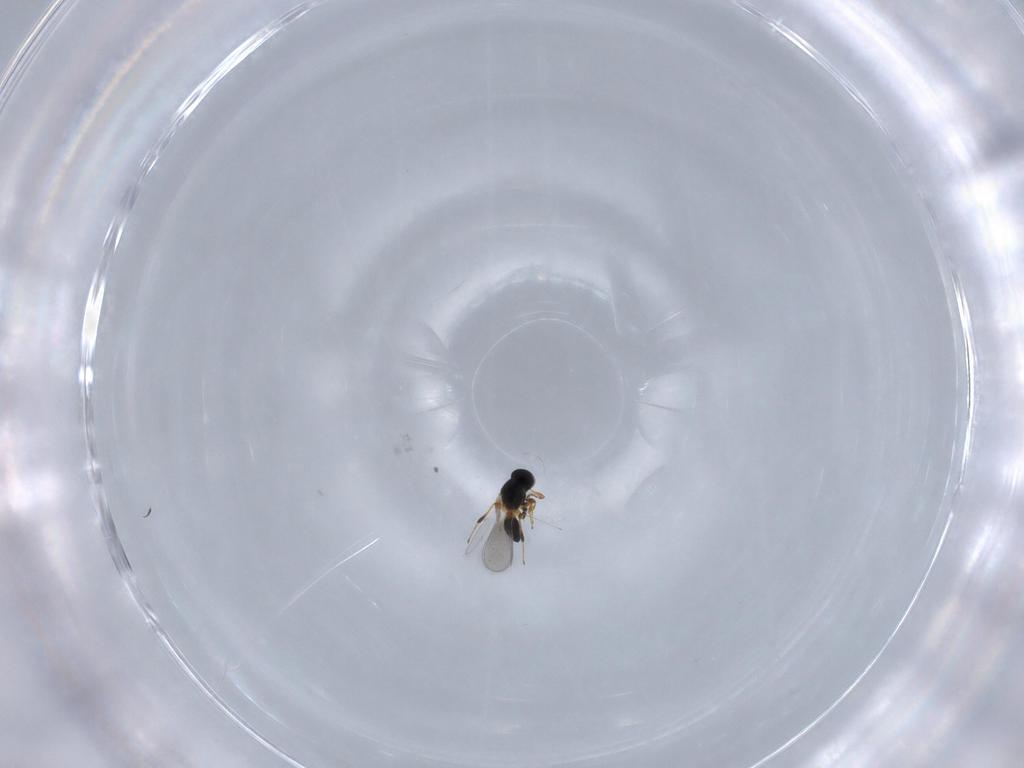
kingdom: Animalia
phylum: Arthropoda
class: Insecta
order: Hymenoptera
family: Platygastridae
